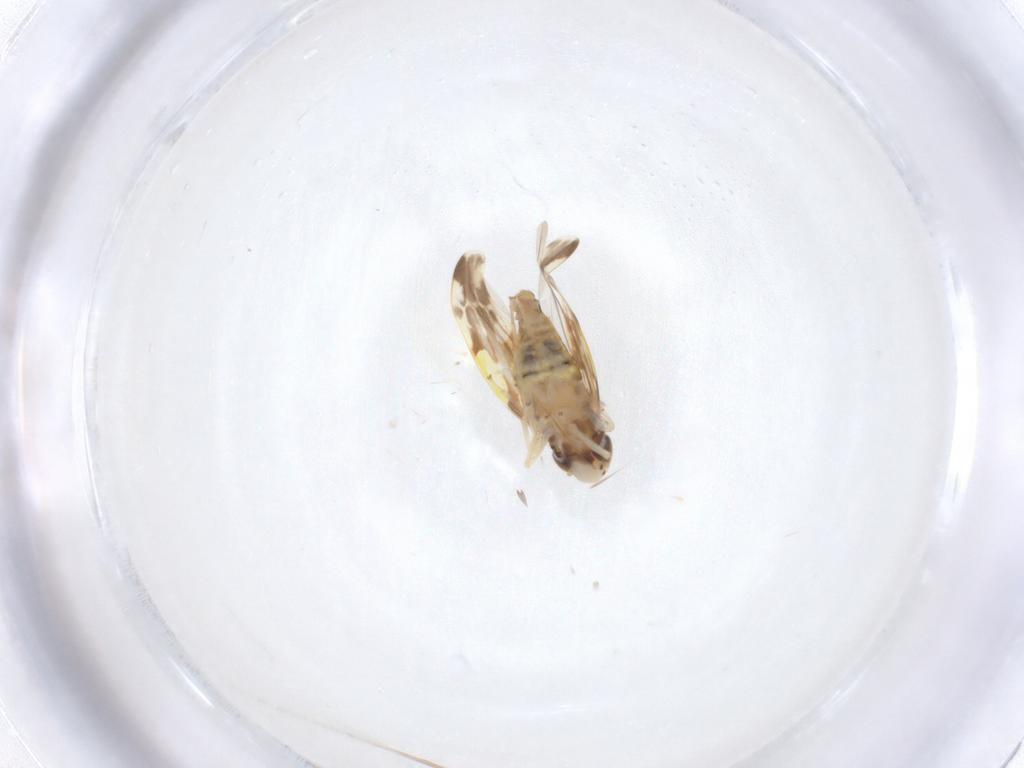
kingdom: Animalia
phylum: Arthropoda
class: Insecta
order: Hemiptera
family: Cicadellidae
